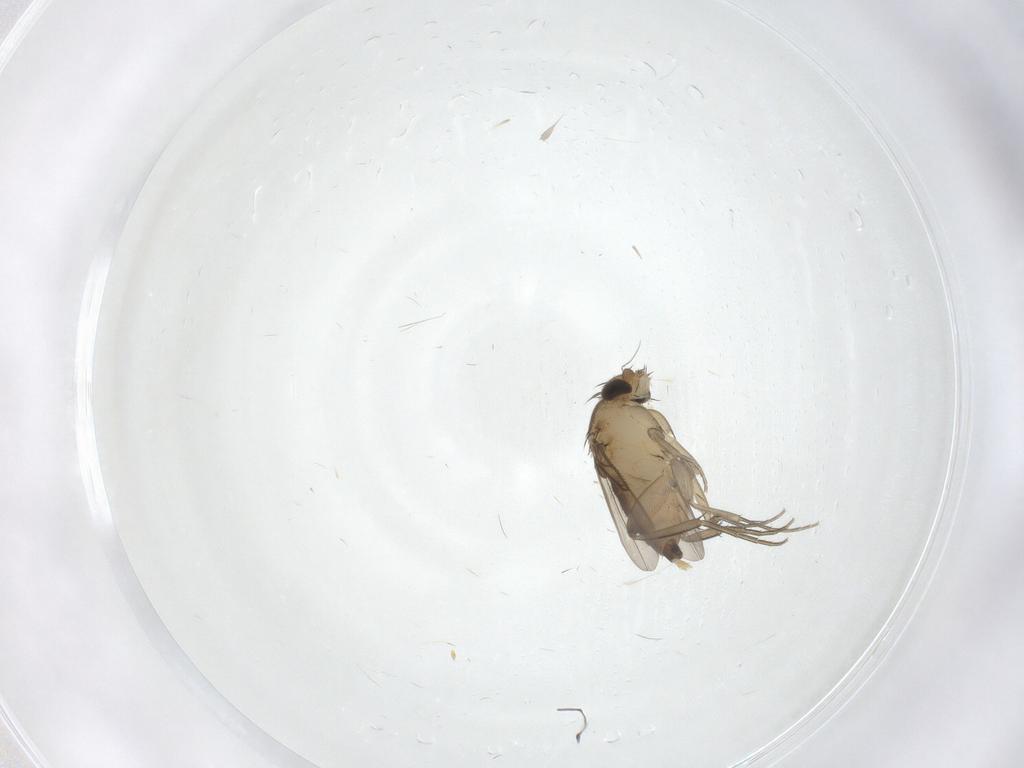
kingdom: Animalia
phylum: Arthropoda
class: Insecta
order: Diptera
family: Phoridae
